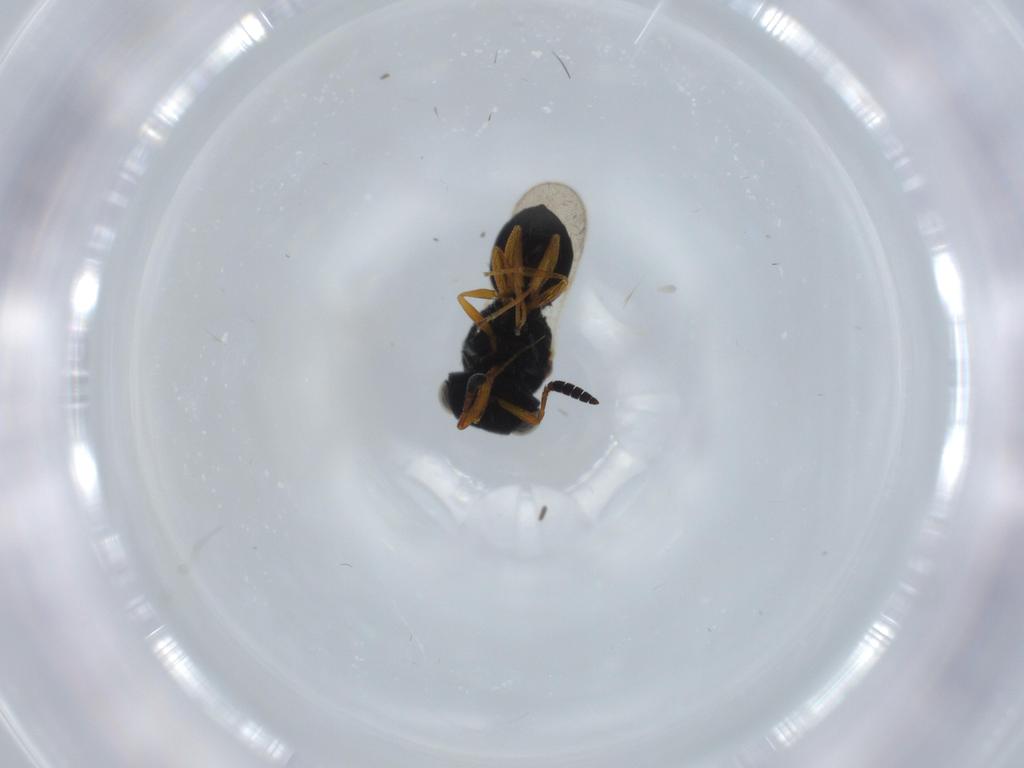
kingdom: Animalia
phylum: Arthropoda
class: Insecta
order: Hymenoptera
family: Scelionidae
